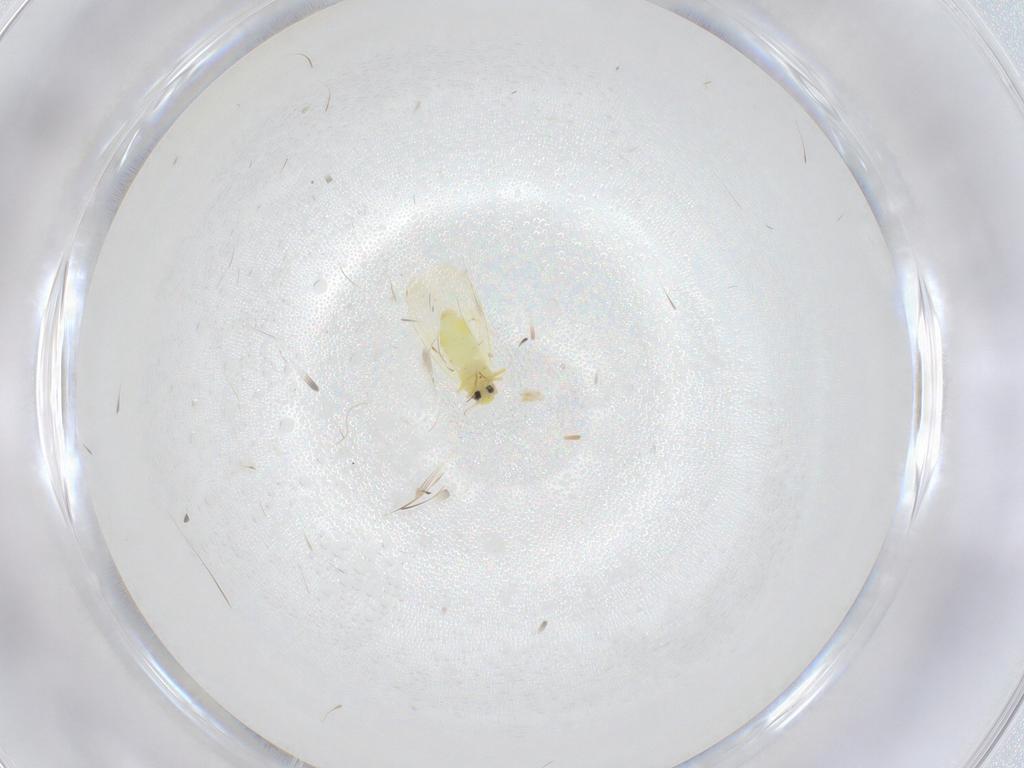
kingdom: Animalia
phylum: Arthropoda
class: Insecta
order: Hemiptera
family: Aleyrodidae
